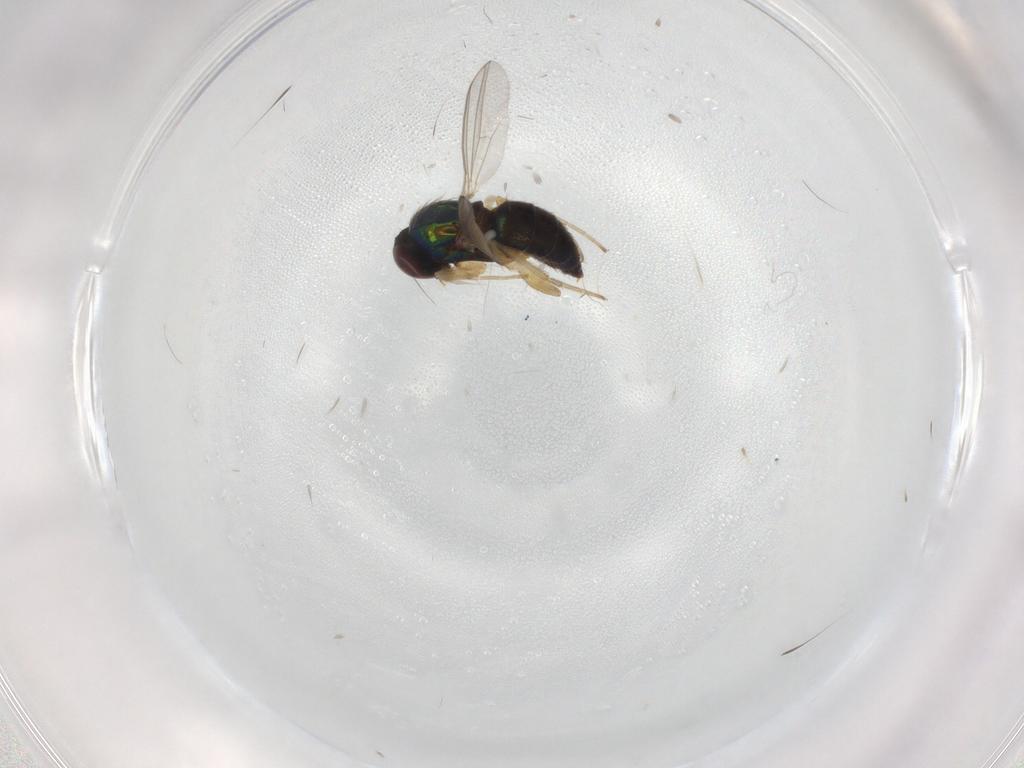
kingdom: Animalia
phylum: Arthropoda
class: Insecta
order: Diptera
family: Dolichopodidae
